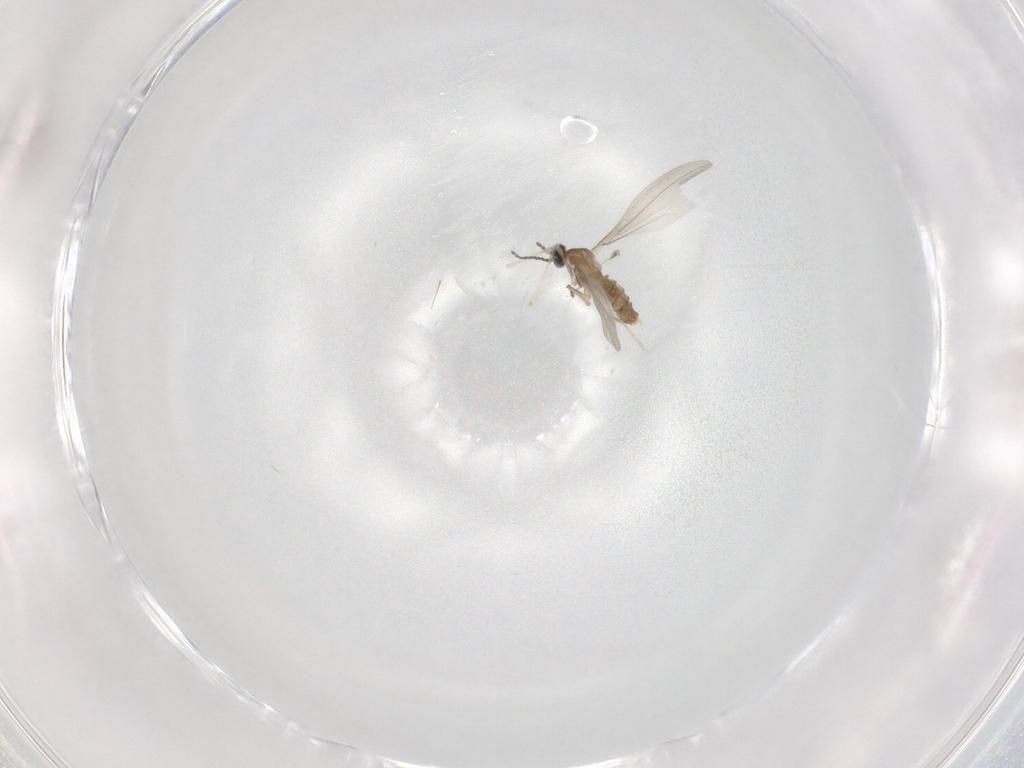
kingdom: Animalia
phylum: Arthropoda
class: Insecta
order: Diptera
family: Phoridae
